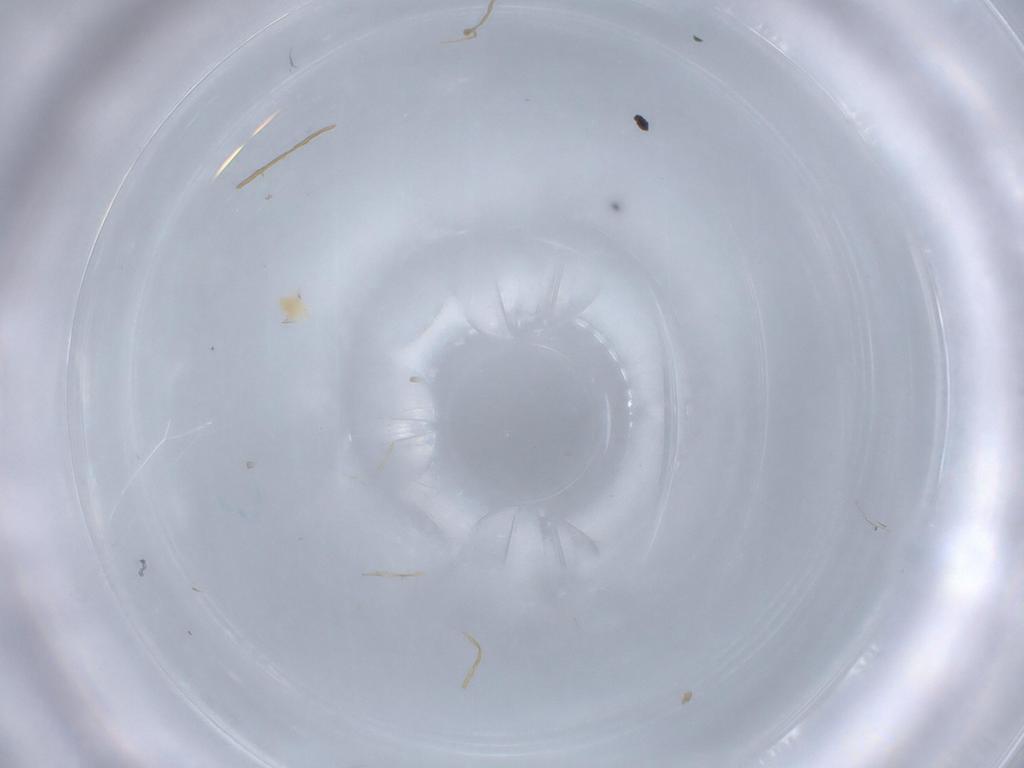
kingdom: Animalia
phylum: Arthropoda
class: Arachnida
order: Trombidiformes
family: Tetranychidae
